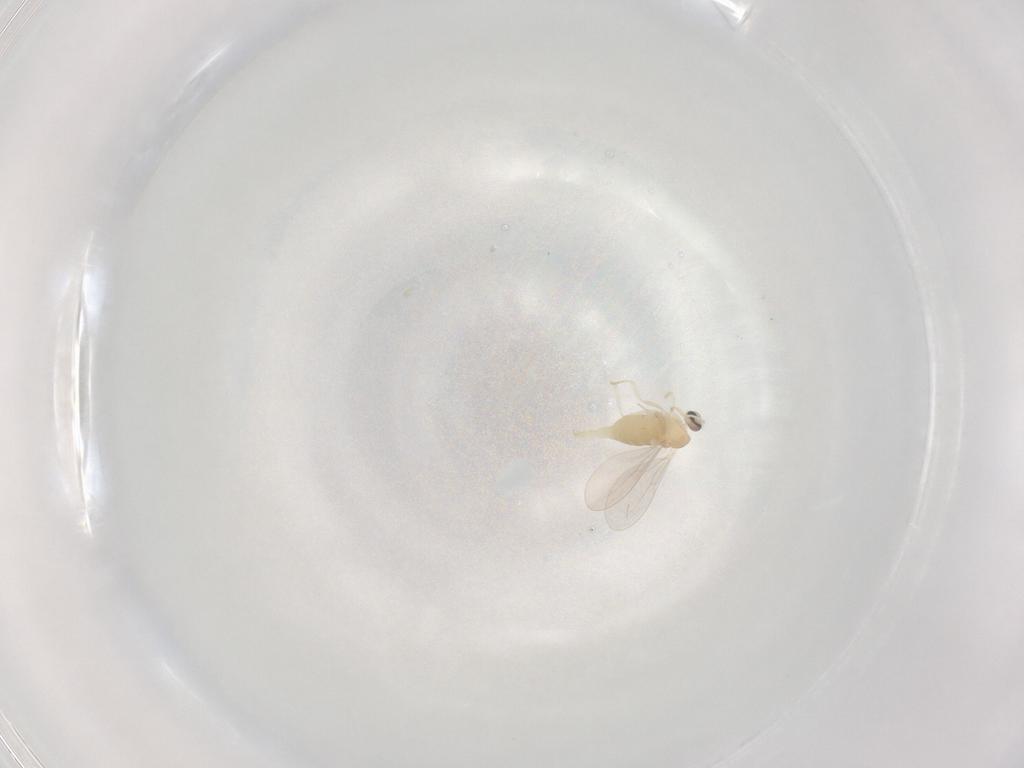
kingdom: Animalia
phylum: Arthropoda
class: Insecta
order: Diptera
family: Cecidomyiidae
